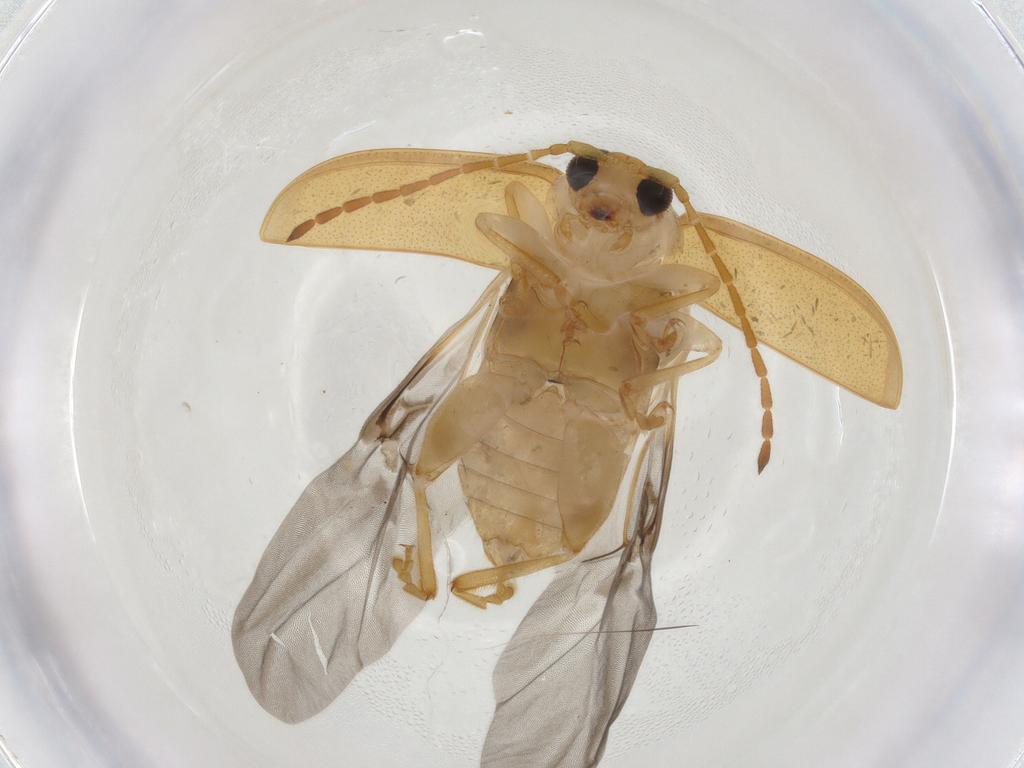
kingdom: Animalia
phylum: Arthropoda
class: Insecta
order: Coleoptera
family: Chrysomelidae
